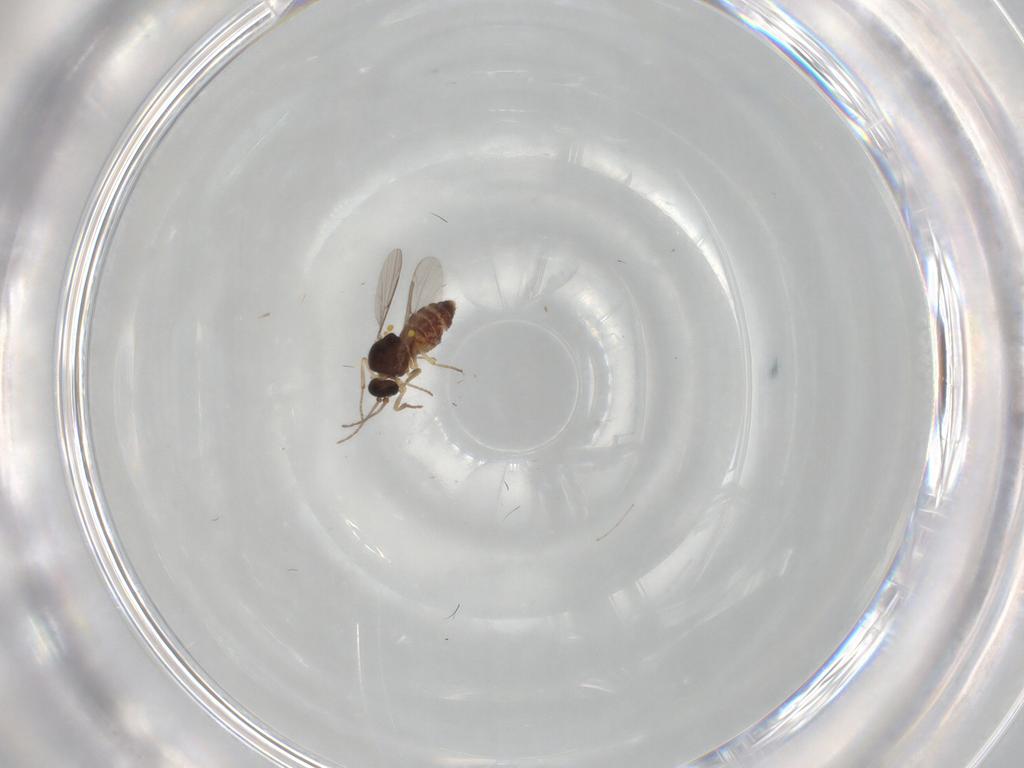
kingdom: Animalia
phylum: Arthropoda
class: Insecta
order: Diptera
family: Ceratopogonidae
